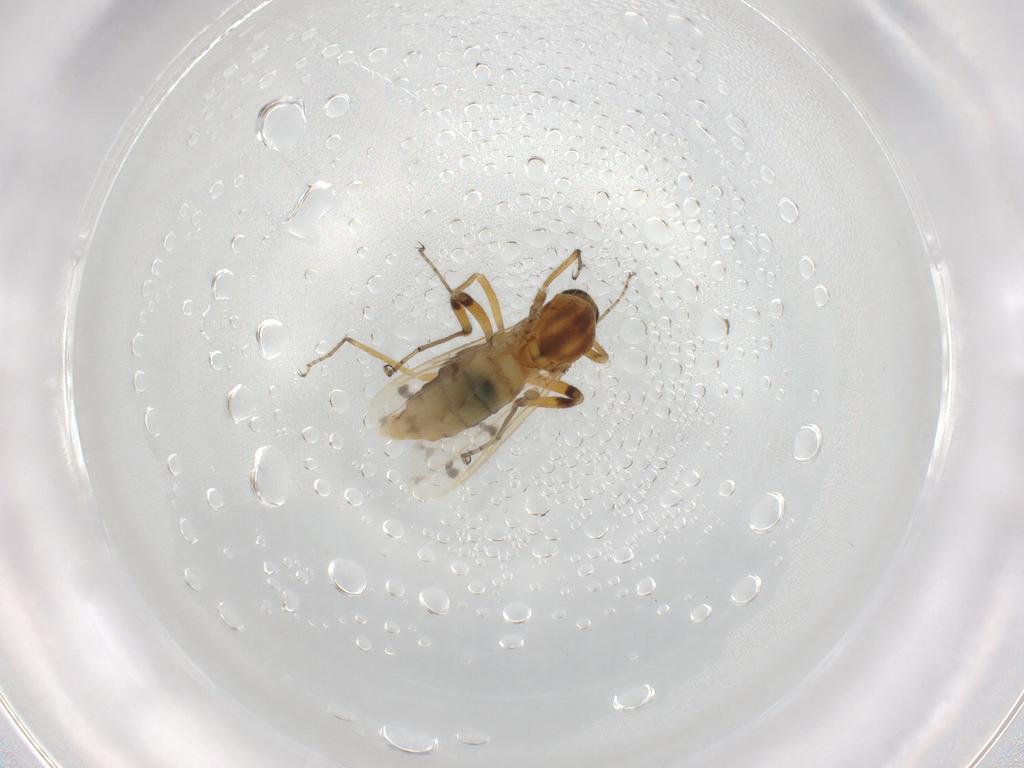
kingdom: Animalia
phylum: Arthropoda
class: Insecta
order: Diptera
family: Ceratopogonidae
